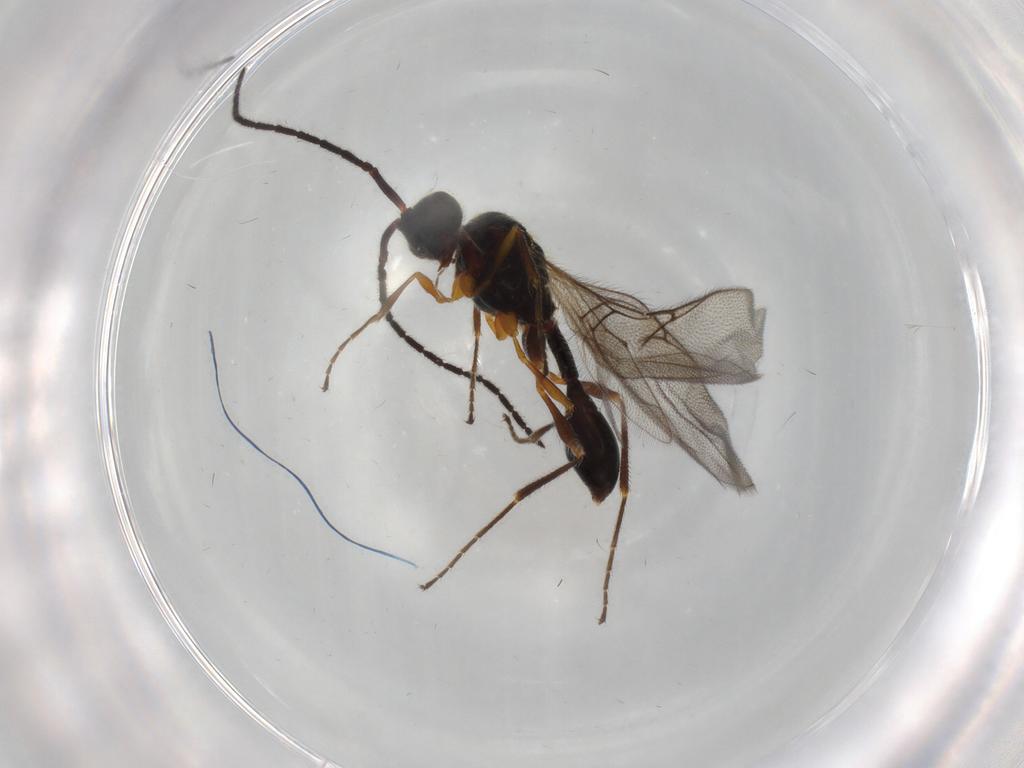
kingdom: Animalia
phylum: Arthropoda
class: Insecta
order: Hymenoptera
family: Diapriidae
